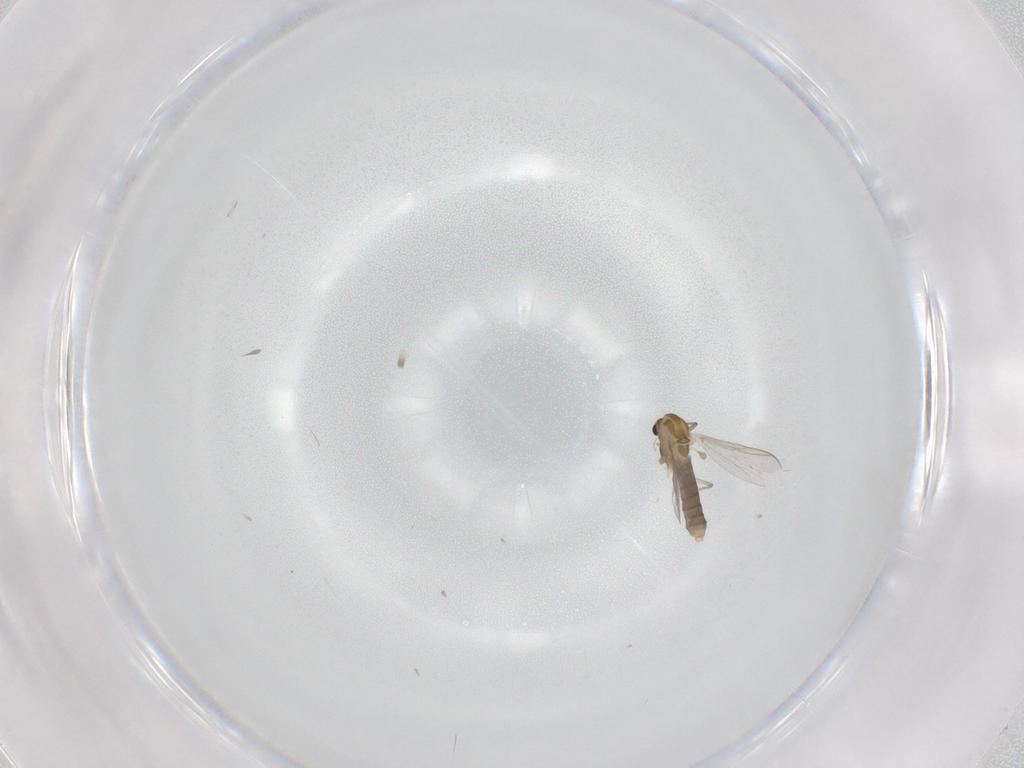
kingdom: Animalia
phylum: Arthropoda
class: Insecta
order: Diptera
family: Chironomidae
